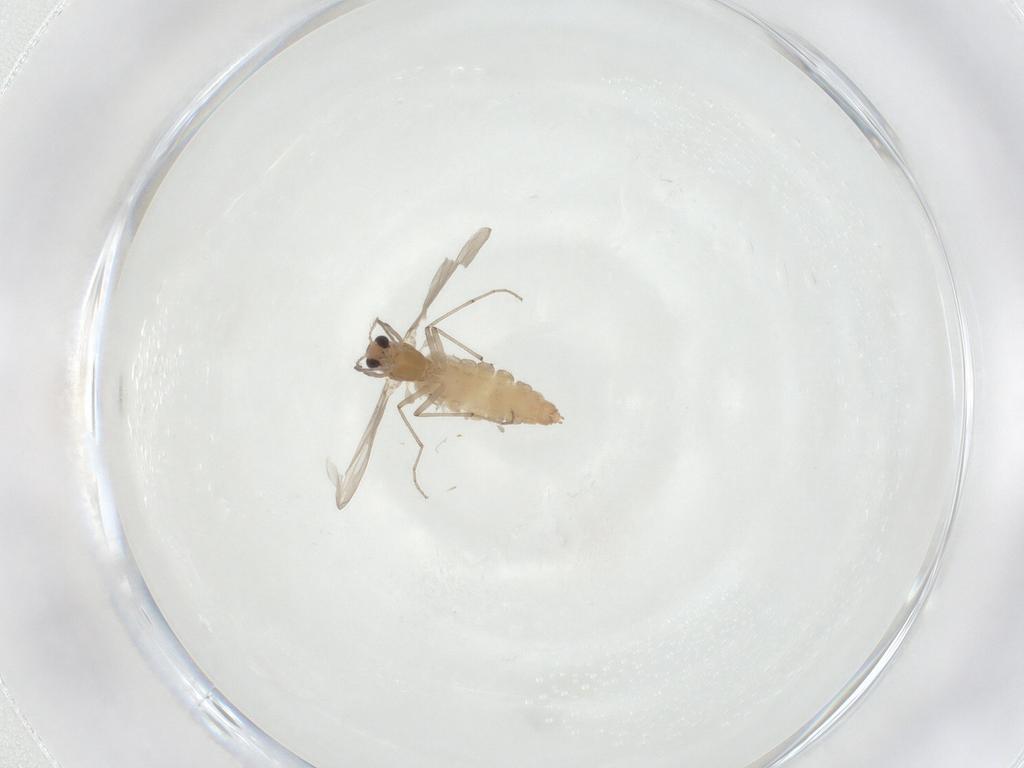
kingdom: Animalia
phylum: Arthropoda
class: Insecta
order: Diptera
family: Chironomidae
